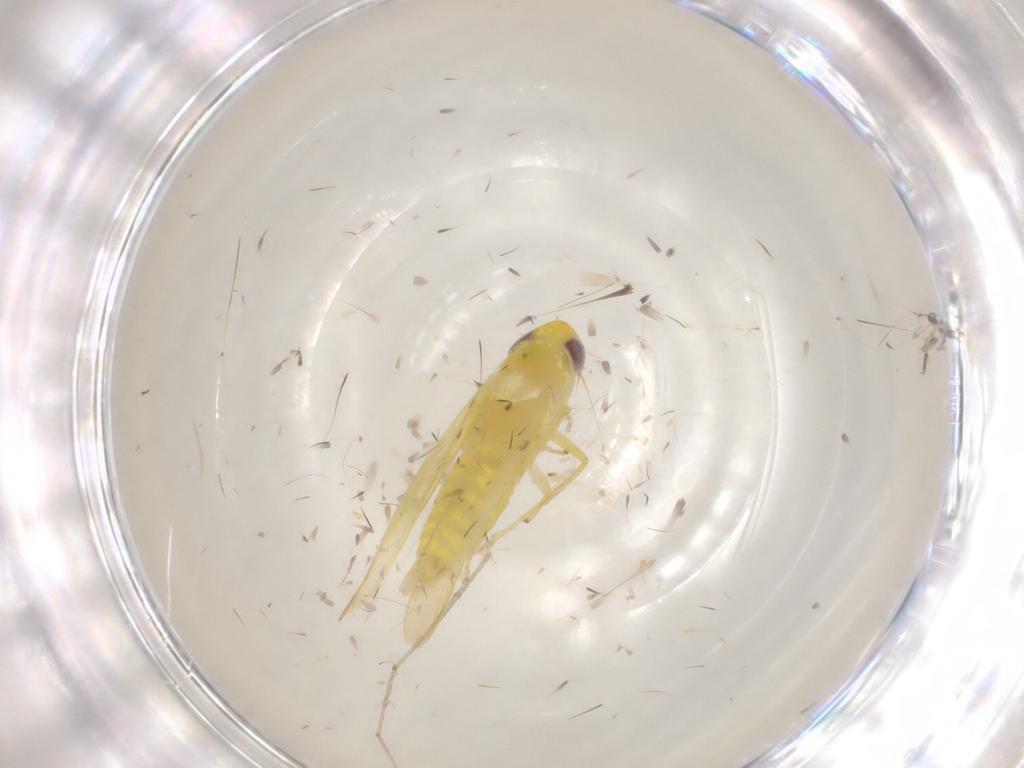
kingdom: Animalia
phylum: Arthropoda
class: Insecta
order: Hemiptera
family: Cicadellidae
